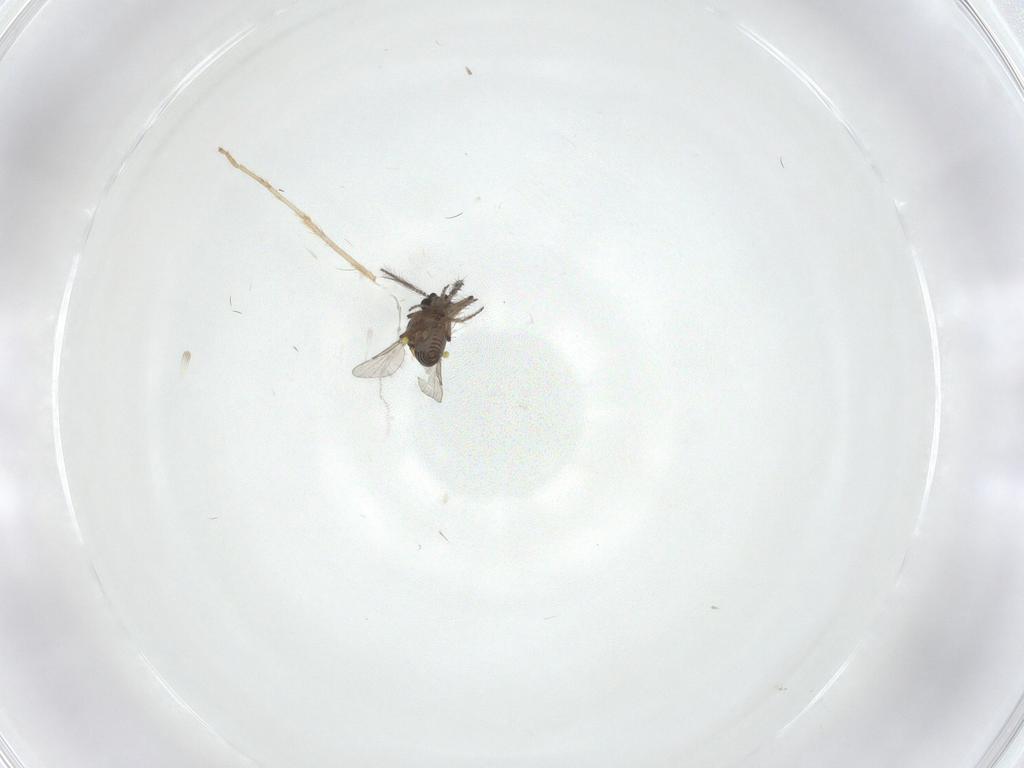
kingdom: Animalia
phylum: Arthropoda
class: Insecta
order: Diptera
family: Chironomidae
